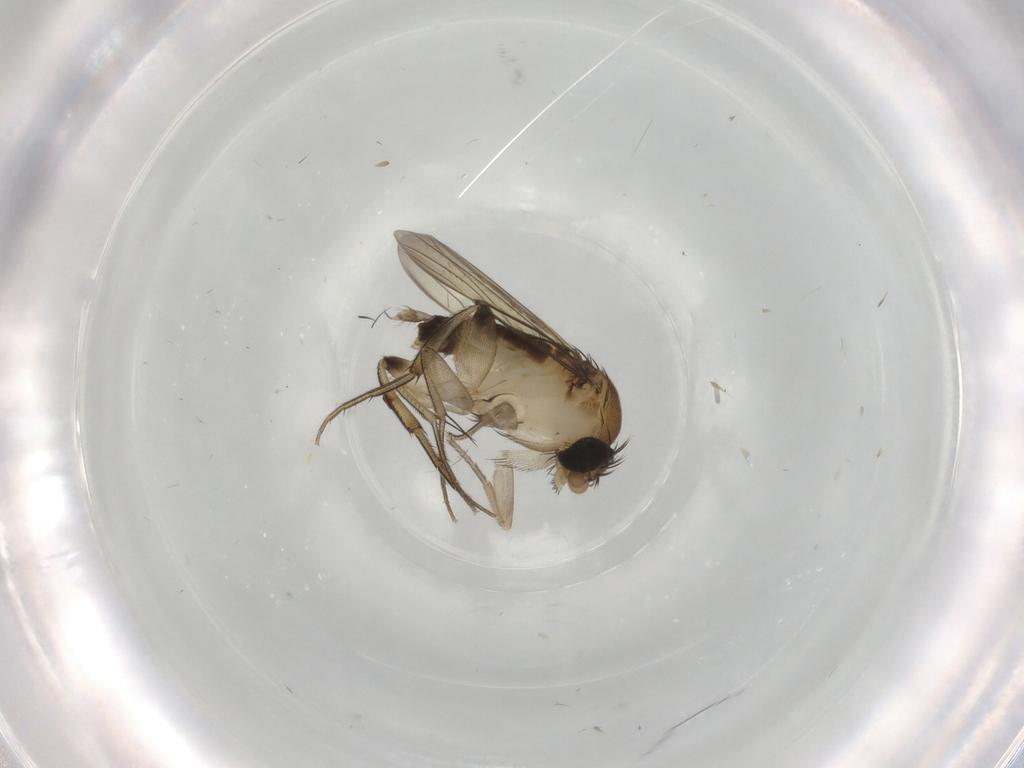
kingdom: Animalia
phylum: Arthropoda
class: Insecta
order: Diptera
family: Phoridae
